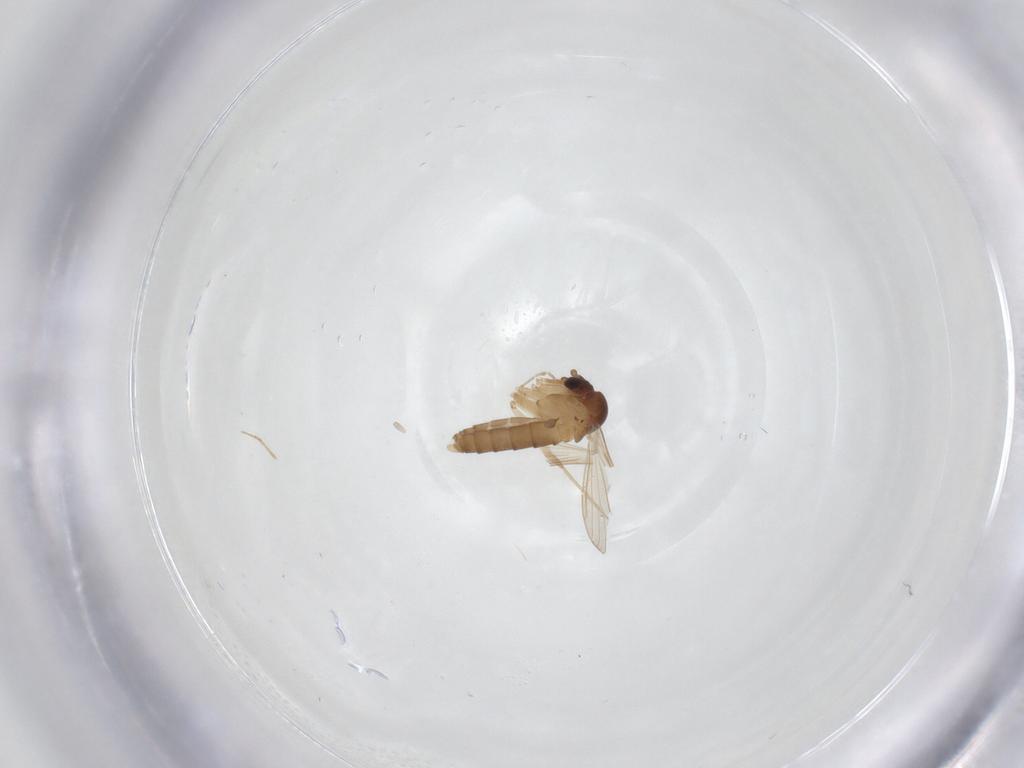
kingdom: Animalia
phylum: Arthropoda
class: Insecta
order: Diptera
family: Psychodidae
